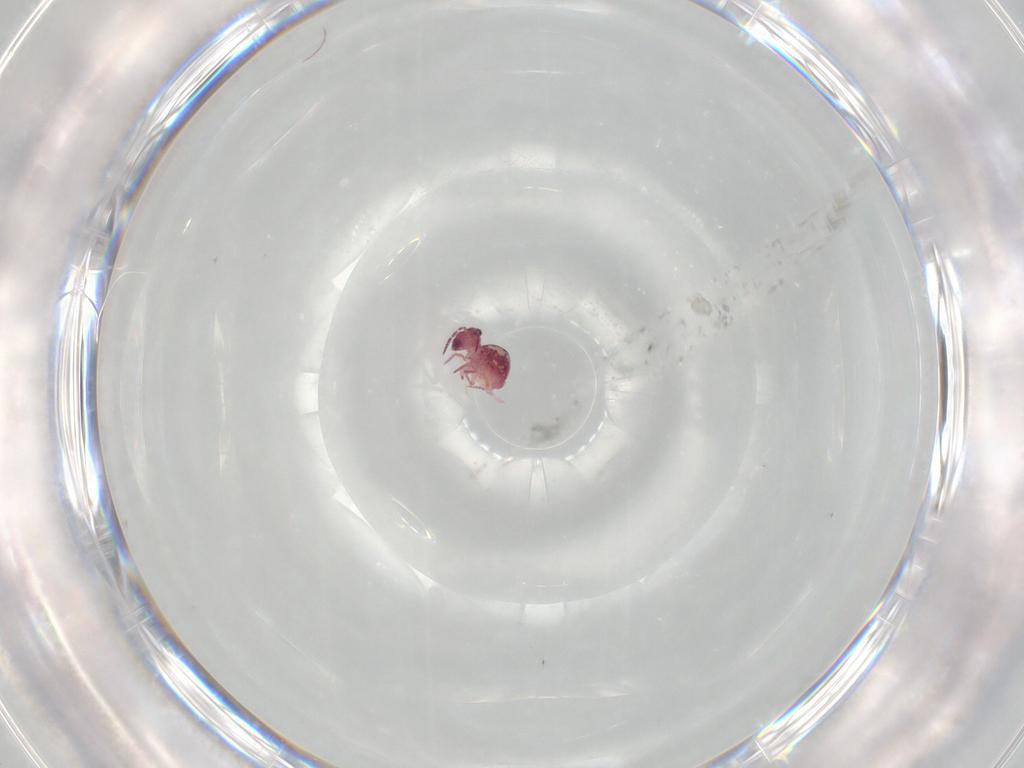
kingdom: Animalia
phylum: Arthropoda
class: Collembola
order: Symphypleona
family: Sminthurididae
